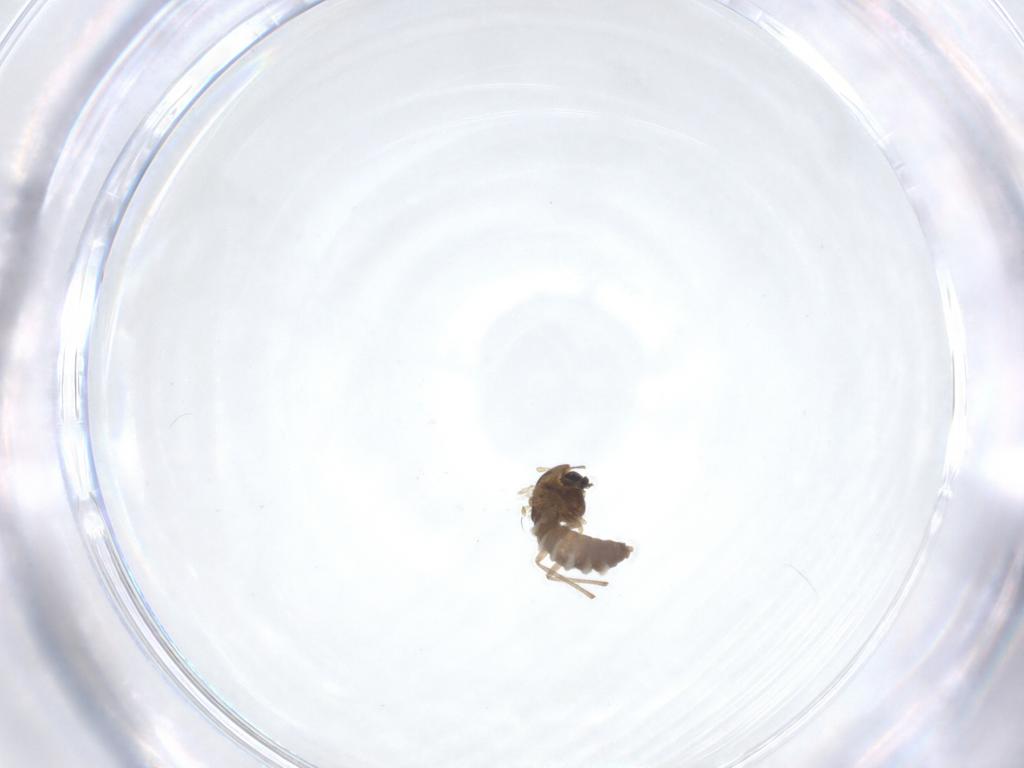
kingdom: Animalia
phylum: Arthropoda
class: Insecta
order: Diptera
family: Chironomidae
